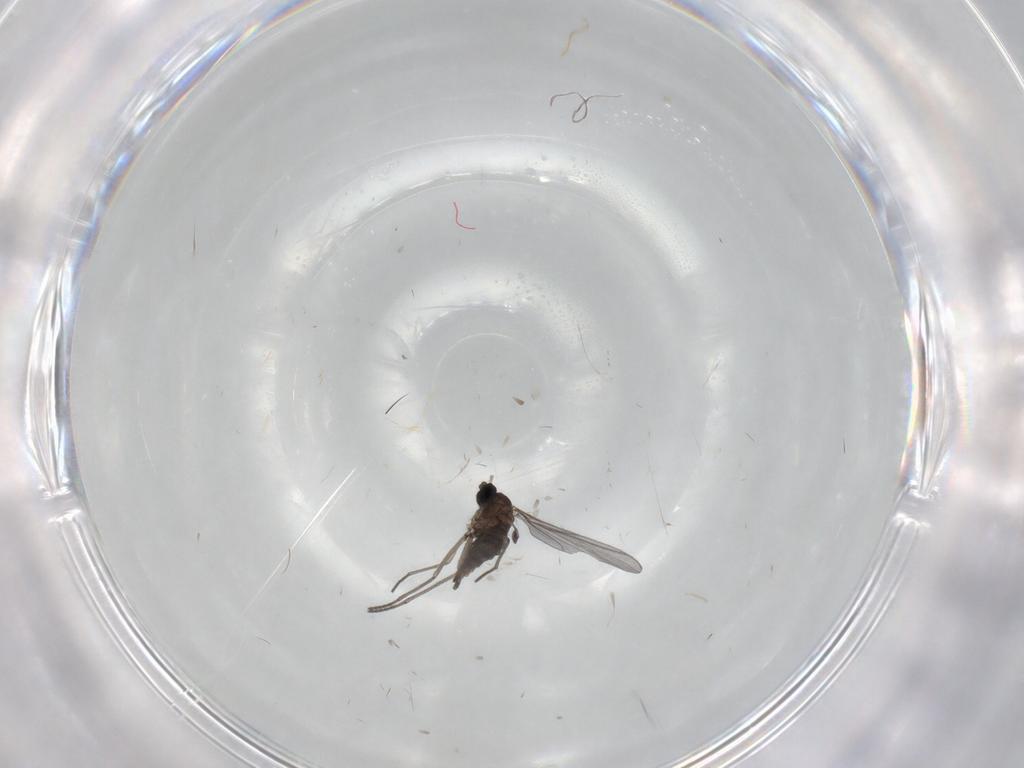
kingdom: Animalia
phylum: Arthropoda
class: Insecta
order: Diptera
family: Sciaridae
